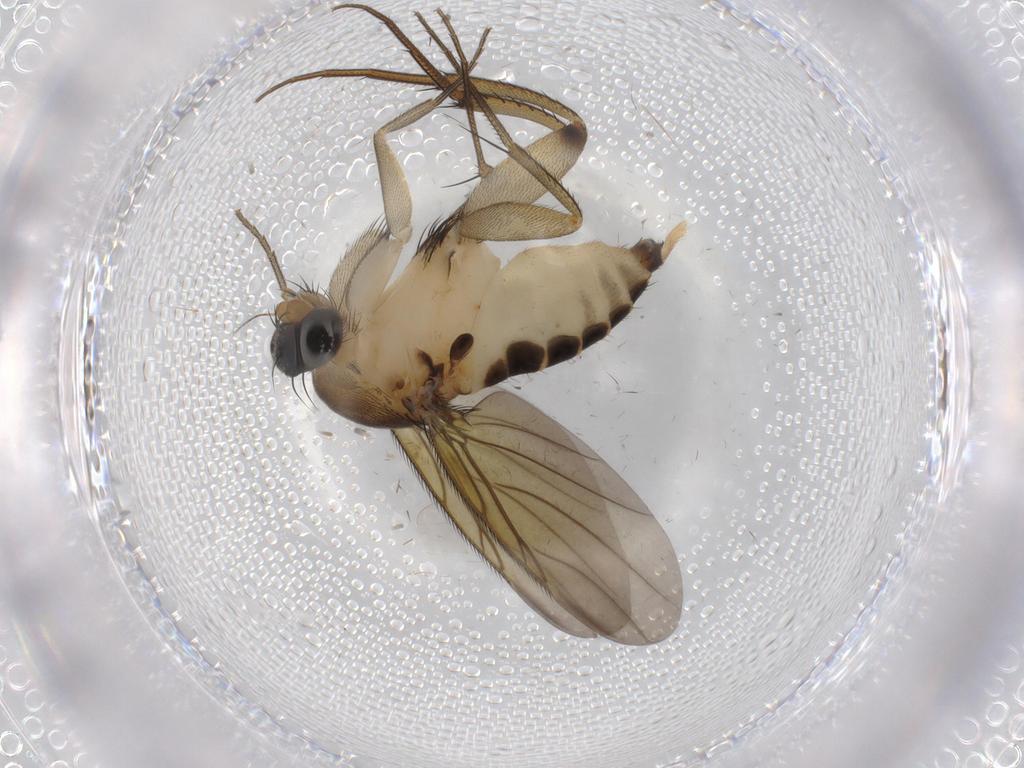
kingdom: Animalia
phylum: Arthropoda
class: Insecta
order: Diptera
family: Limoniidae
